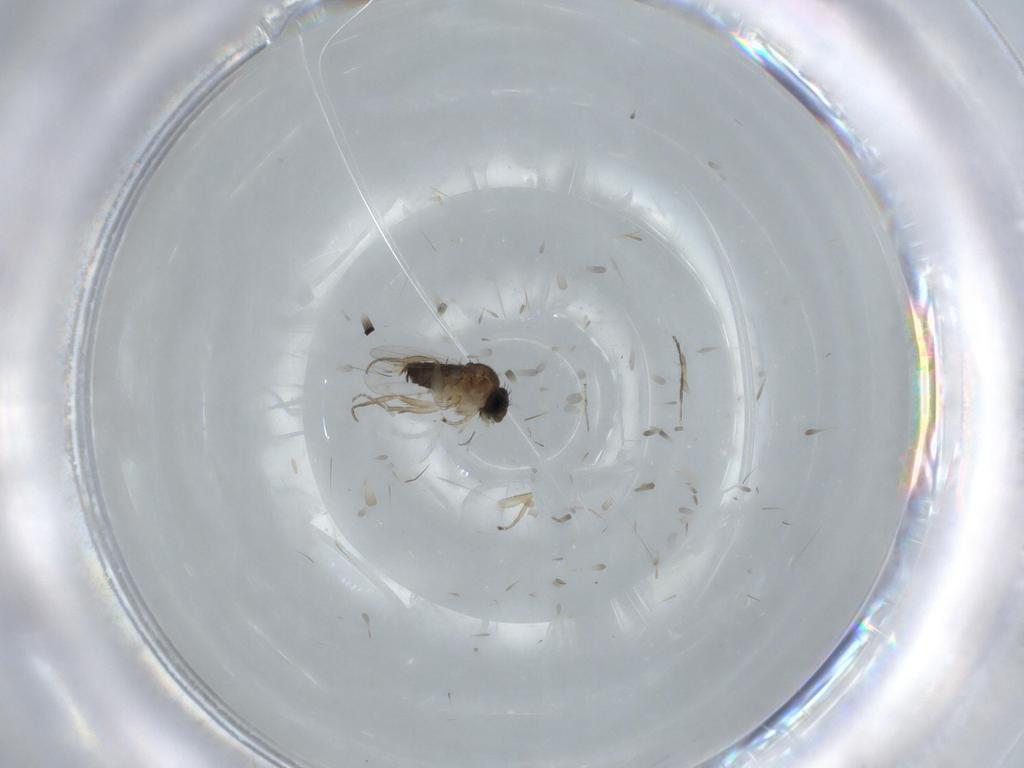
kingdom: Animalia
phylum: Arthropoda
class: Insecta
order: Diptera
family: Phoridae
